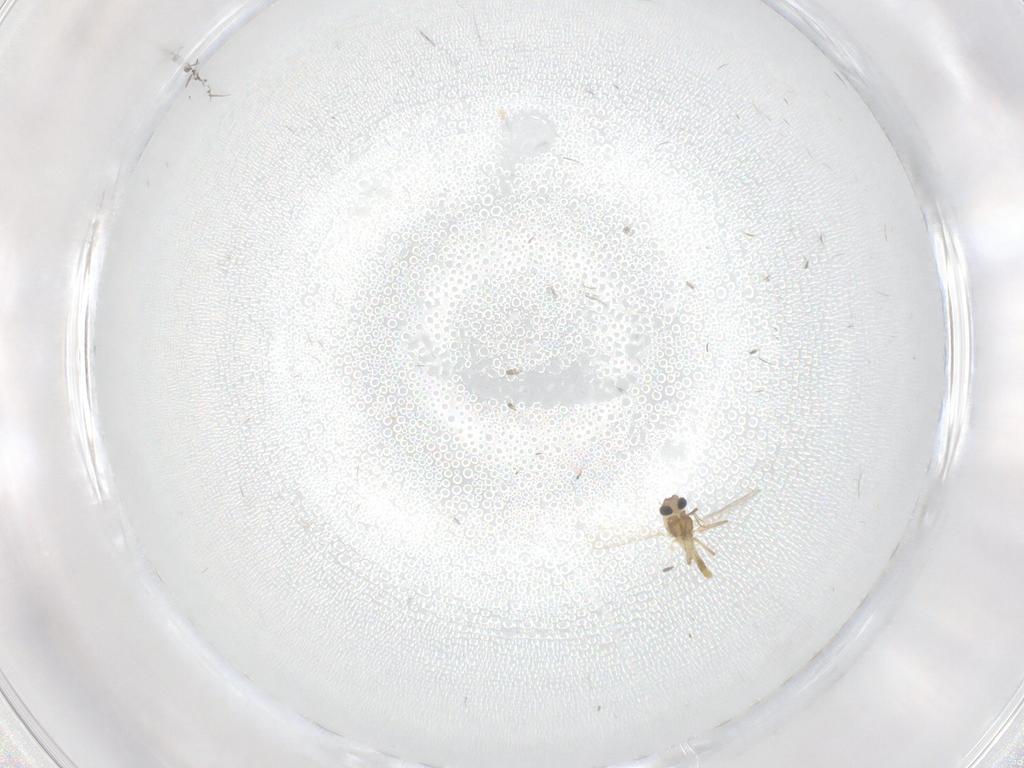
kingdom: Animalia
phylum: Arthropoda
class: Insecta
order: Diptera
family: Chironomidae
